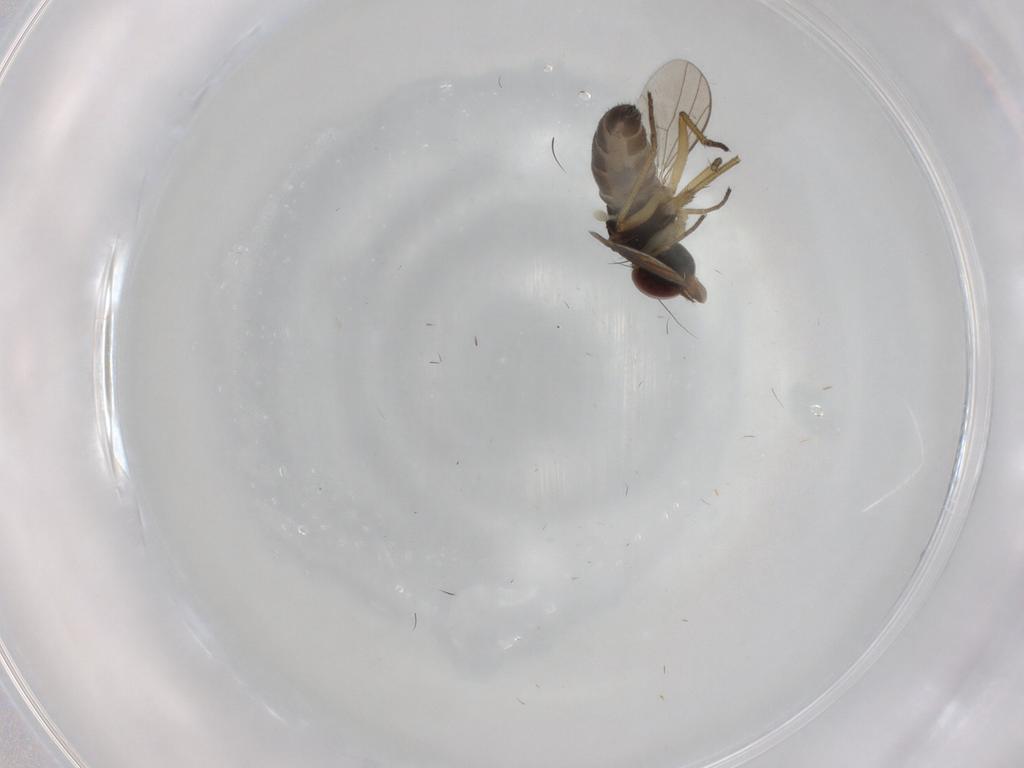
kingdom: Animalia
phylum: Arthropoda
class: Insecta
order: Diptera
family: Dolichopodidae
